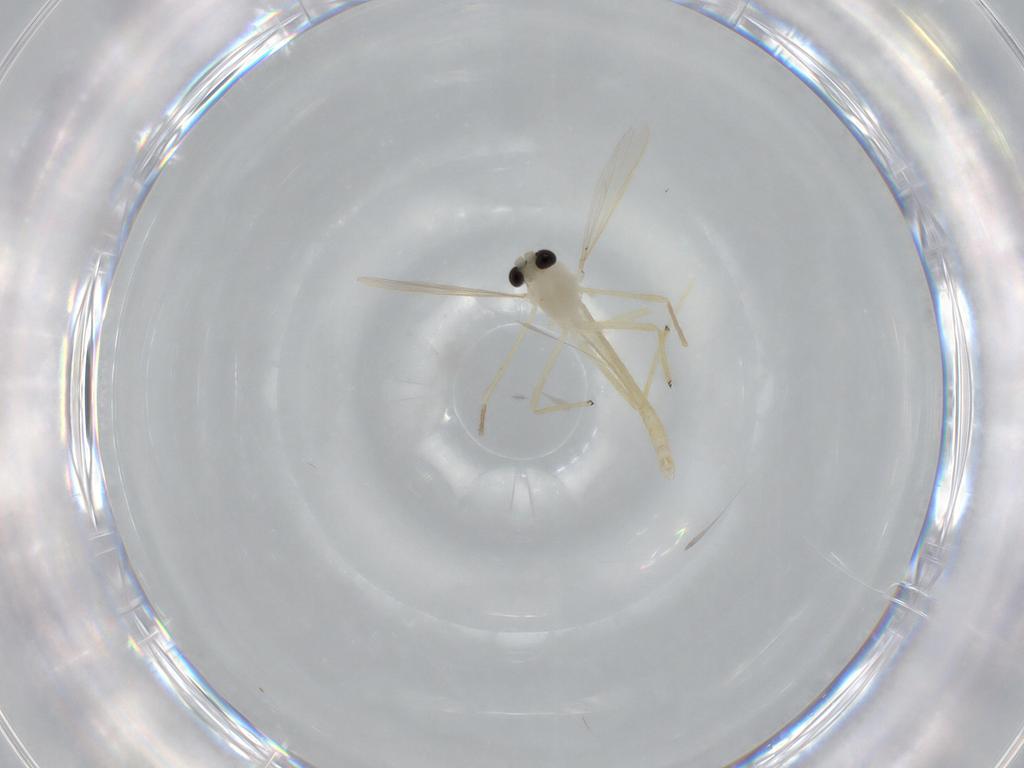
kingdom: Animalia
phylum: Arthropoda
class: Insecta
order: Diptera
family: Chironomidae
